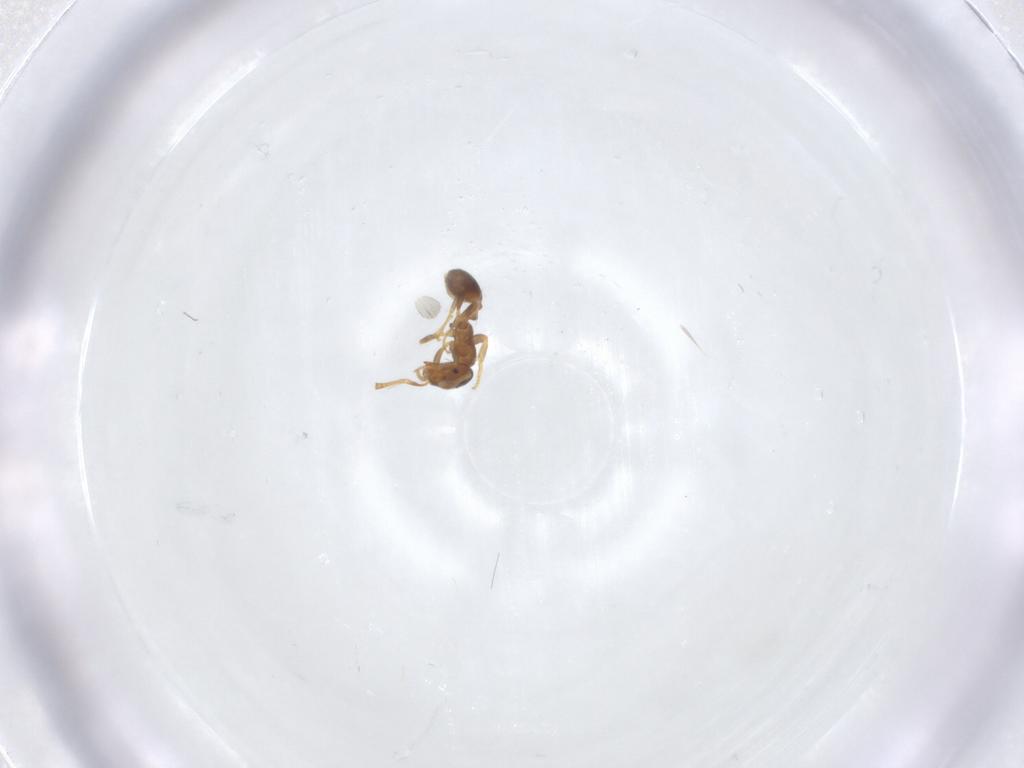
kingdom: Animalia
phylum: Arthropoda
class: Insecta
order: Hymenoptera
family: Formicidae
